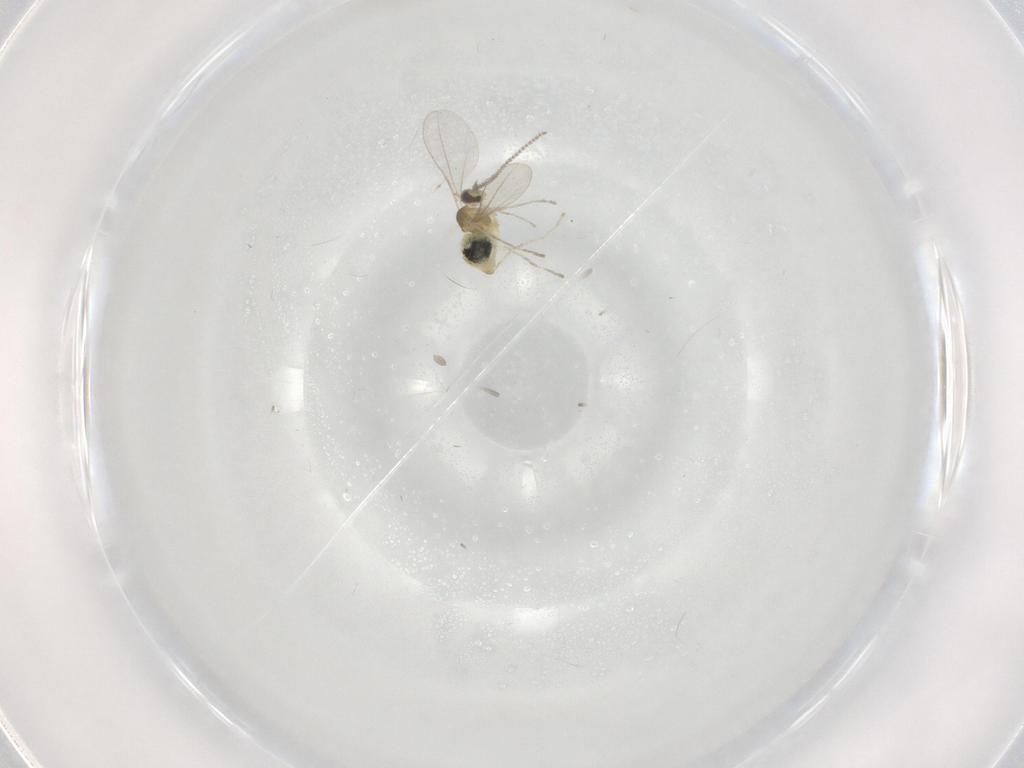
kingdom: Animalia
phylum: Arthropoda
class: Insecta
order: Diptera
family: Cecidomyiidae
